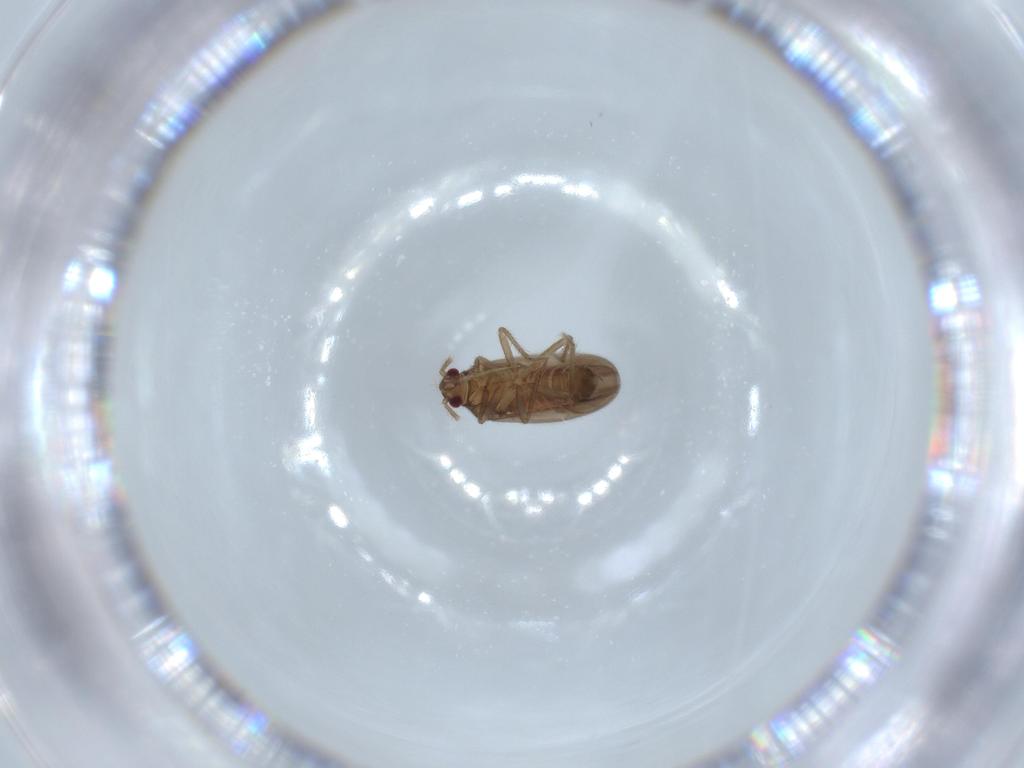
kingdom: Animalia
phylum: Arthropoda
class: Insecta
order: Hemiptera
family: Ceratocombidae
